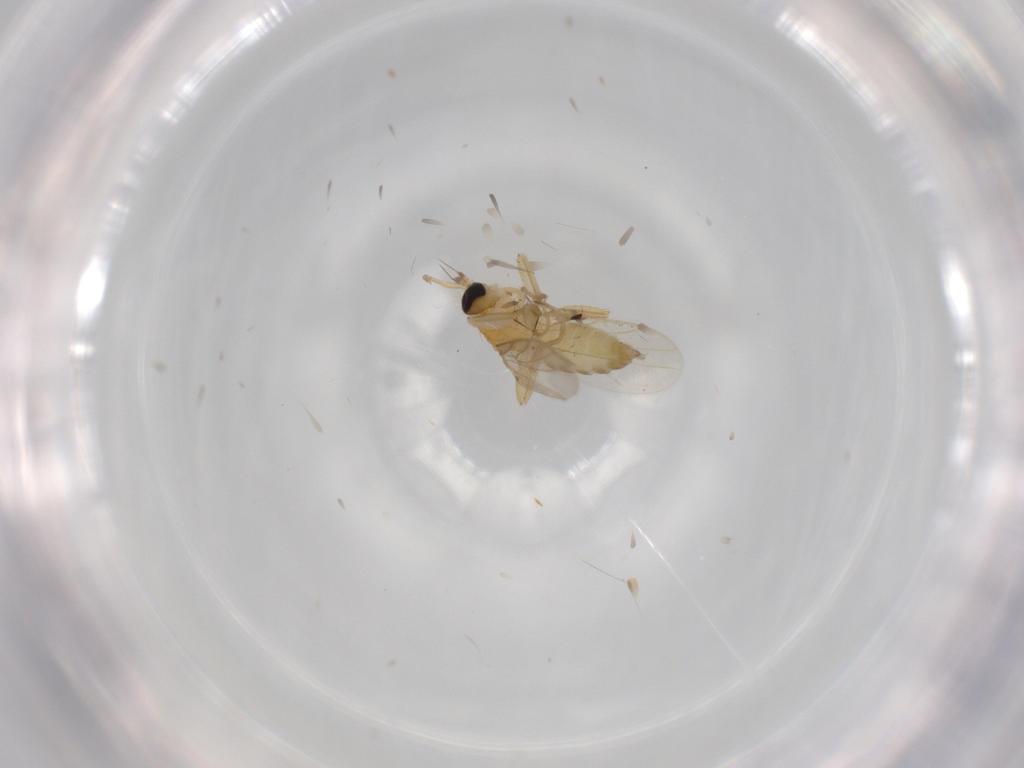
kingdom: Animalia
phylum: Arthropoda
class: Insecta
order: Diptera
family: Hybotidae
